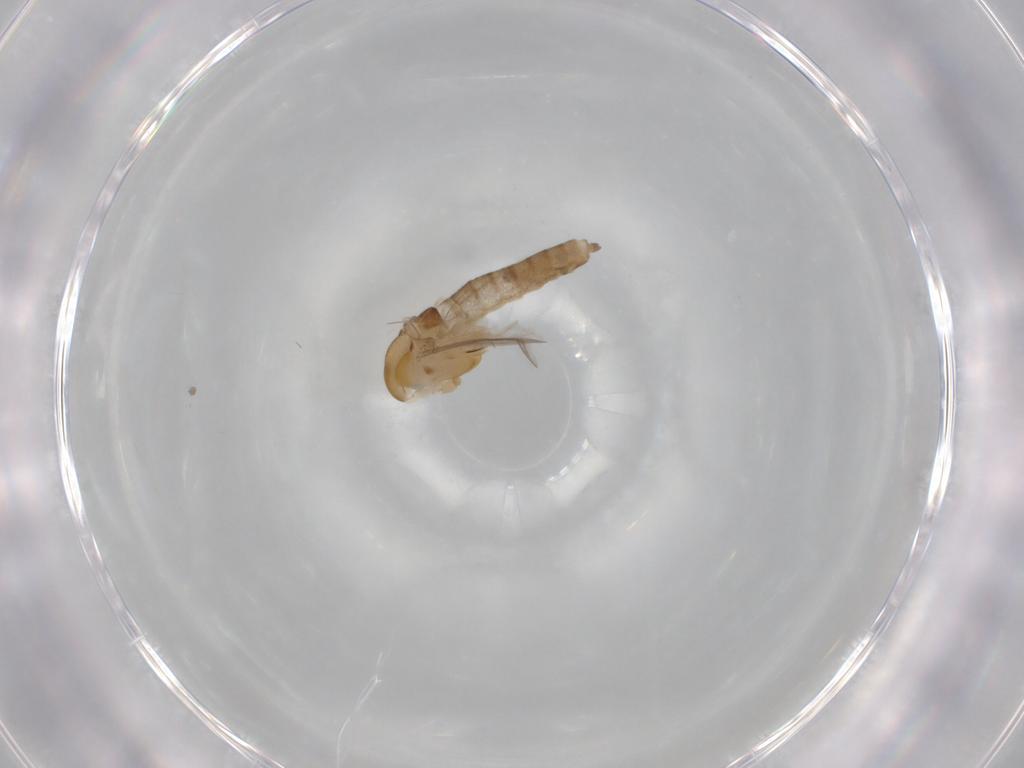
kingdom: Animalia
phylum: Arthropoda
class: Insecta
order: Diptera
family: Chironomidae
